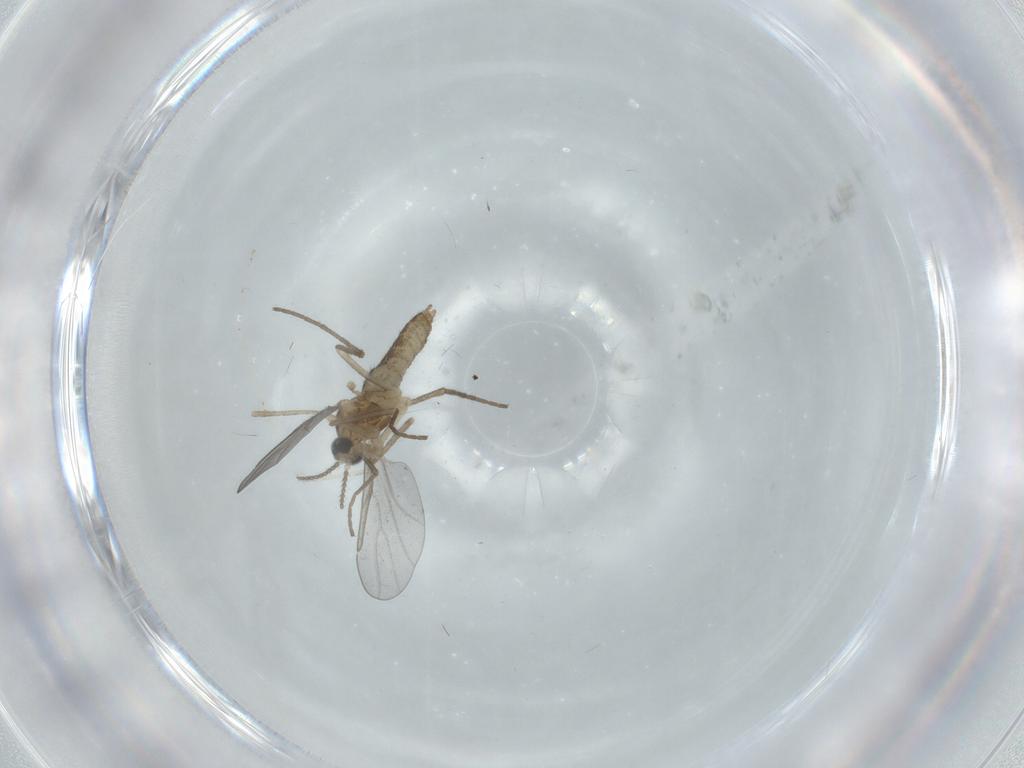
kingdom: Animalia
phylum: Arthropoda
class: Insecta
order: Diptera
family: Cecidomyiidae
